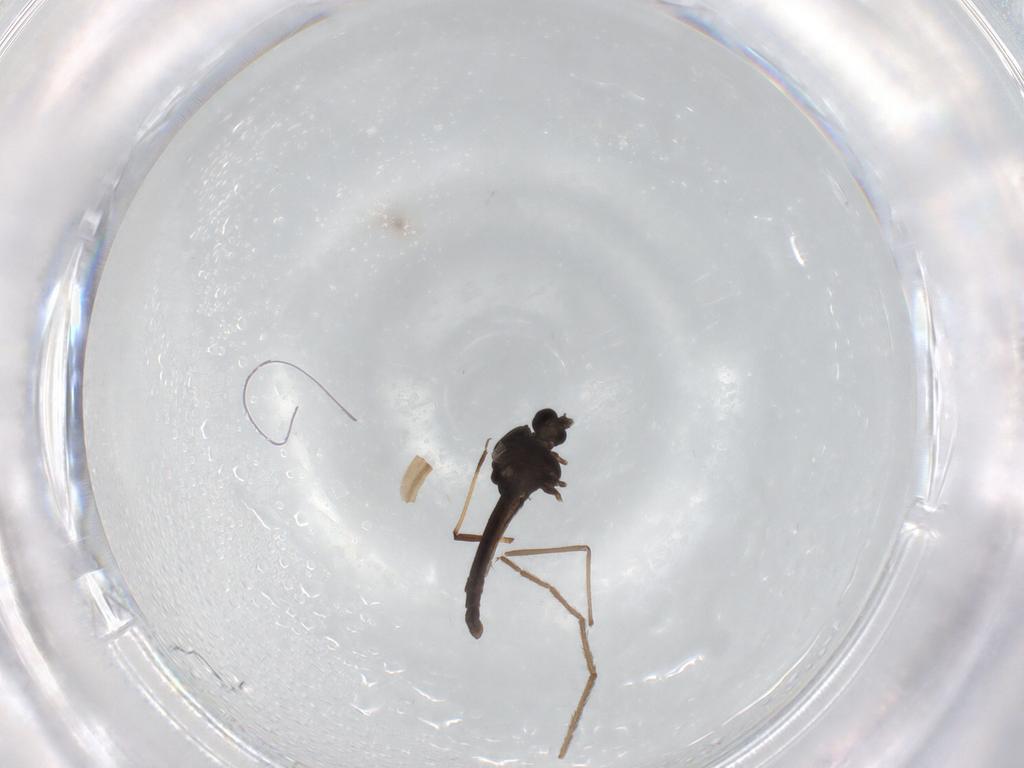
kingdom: Animalia
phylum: Arthropoda
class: Insecta
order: Diptera
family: Chironomidae
